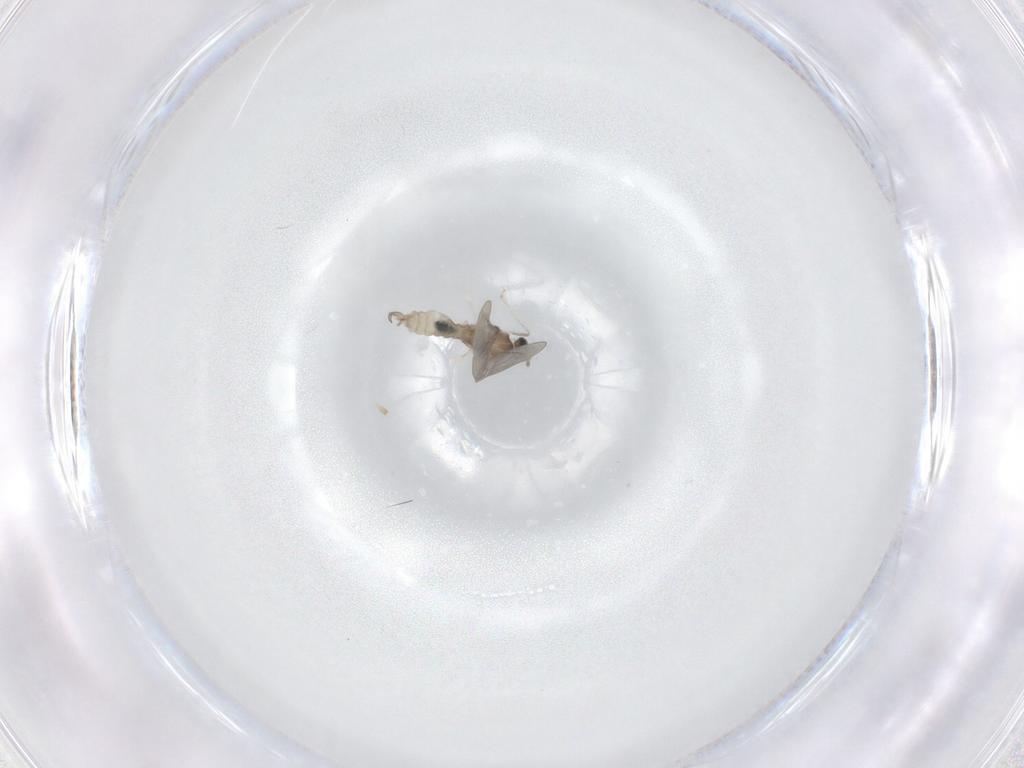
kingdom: Animalia
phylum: Arthropoda
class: Insecta
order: Diptera
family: Cecidomyiidae
